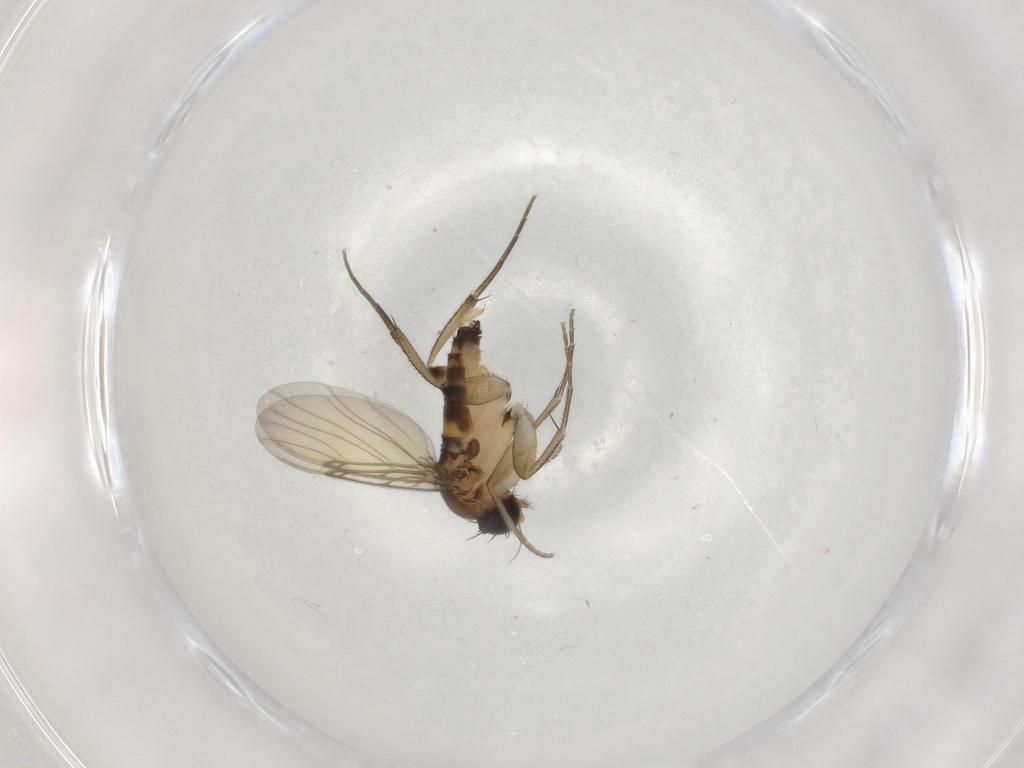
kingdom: Animalia
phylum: Arthropoda
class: Insecta
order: Diptera
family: Phoridae
